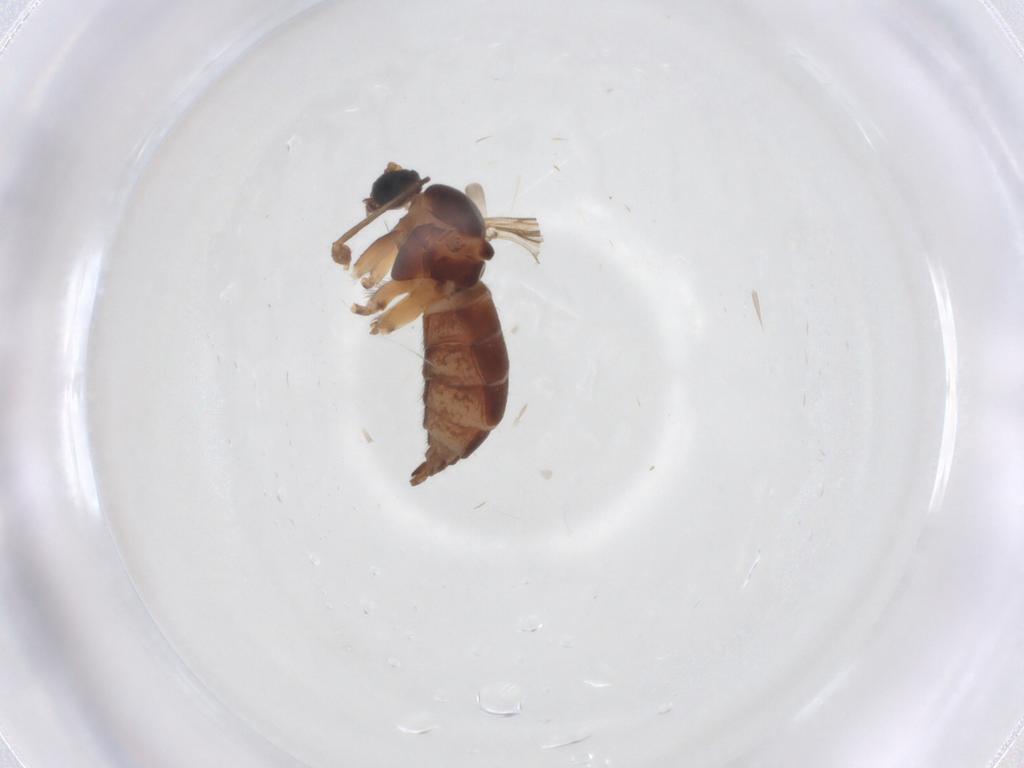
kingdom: Animalia
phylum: Arthropoda
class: Insecta
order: Diptera
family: Sciaridae
